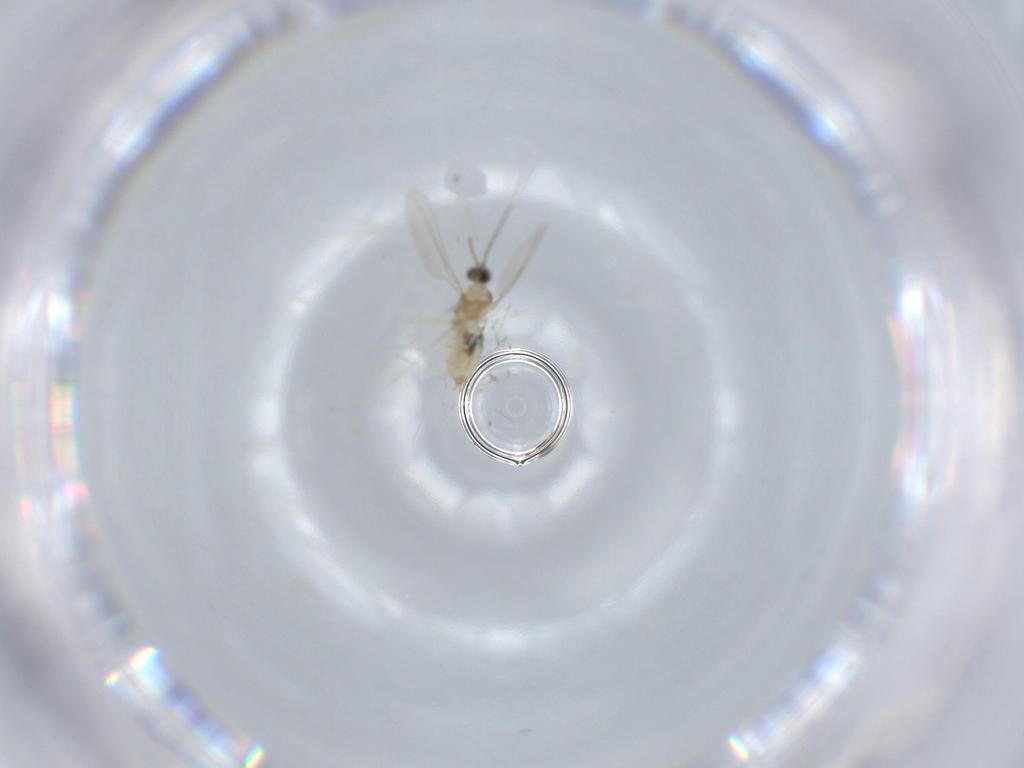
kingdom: Animalia
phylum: Arthropoda
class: Insecta
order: Diptera
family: Cecidomyiidae
